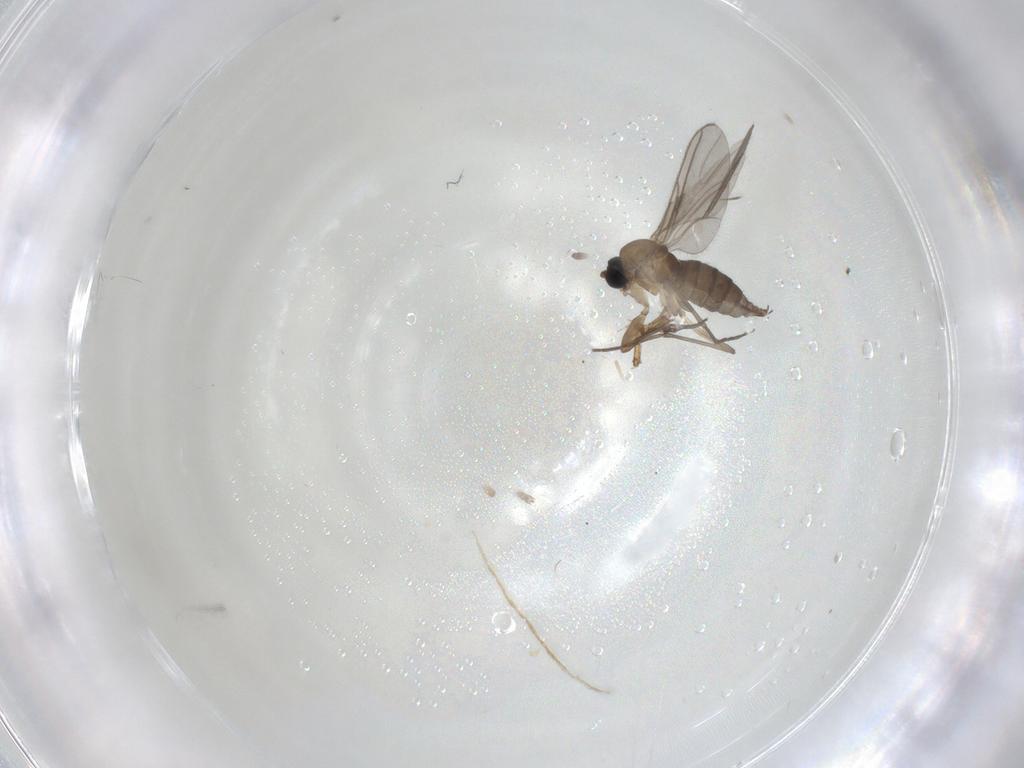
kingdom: Animalia
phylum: Arthropoda
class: Insecta
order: Diptera
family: Sciaridae
